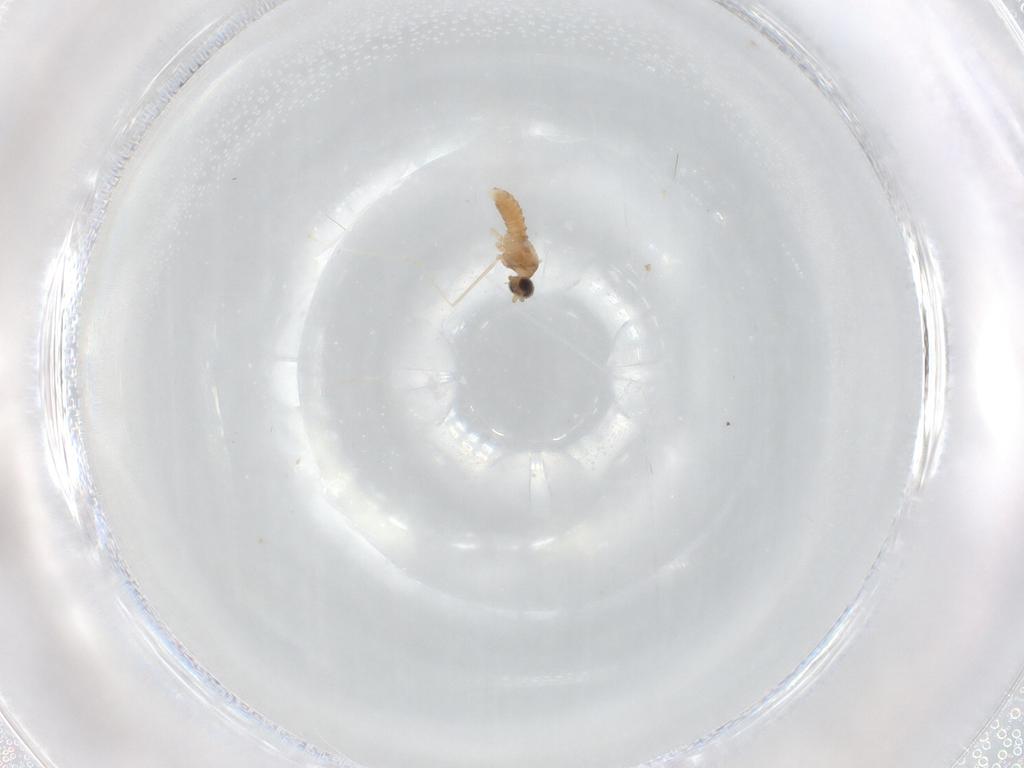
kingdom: Animalia
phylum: Arthropoda
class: Insecta
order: Diptera
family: Cecidomyiidae
